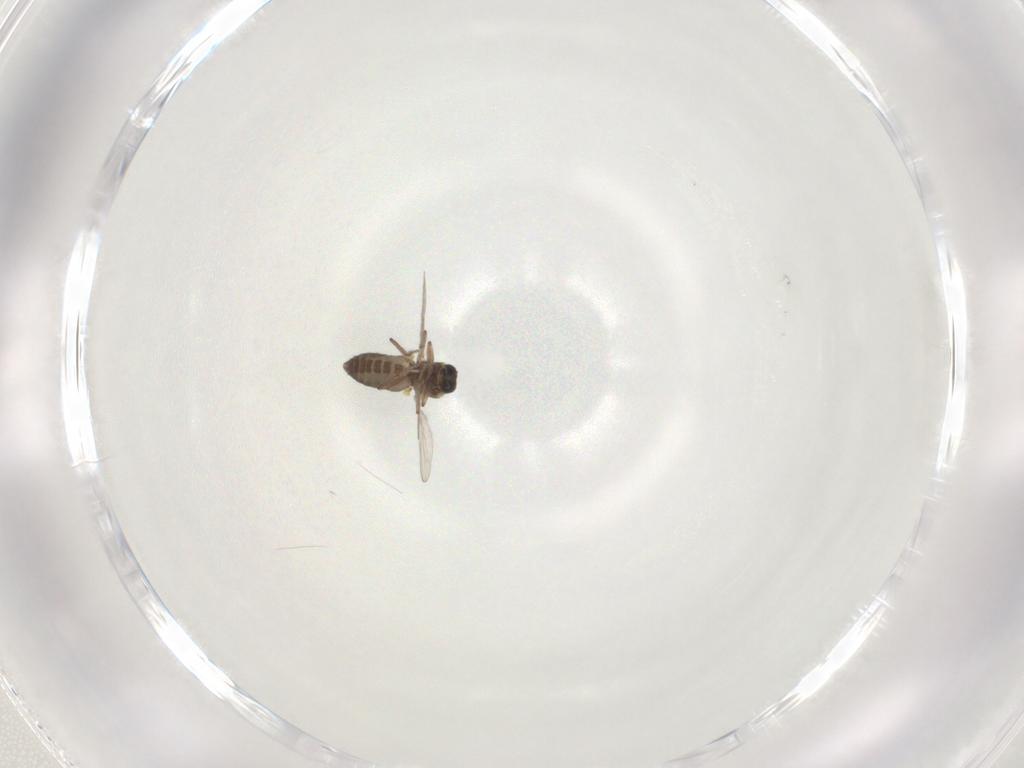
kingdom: Animalia
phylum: Arthropoda
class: Insecta
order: Diptera
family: Ceratopogonidae
